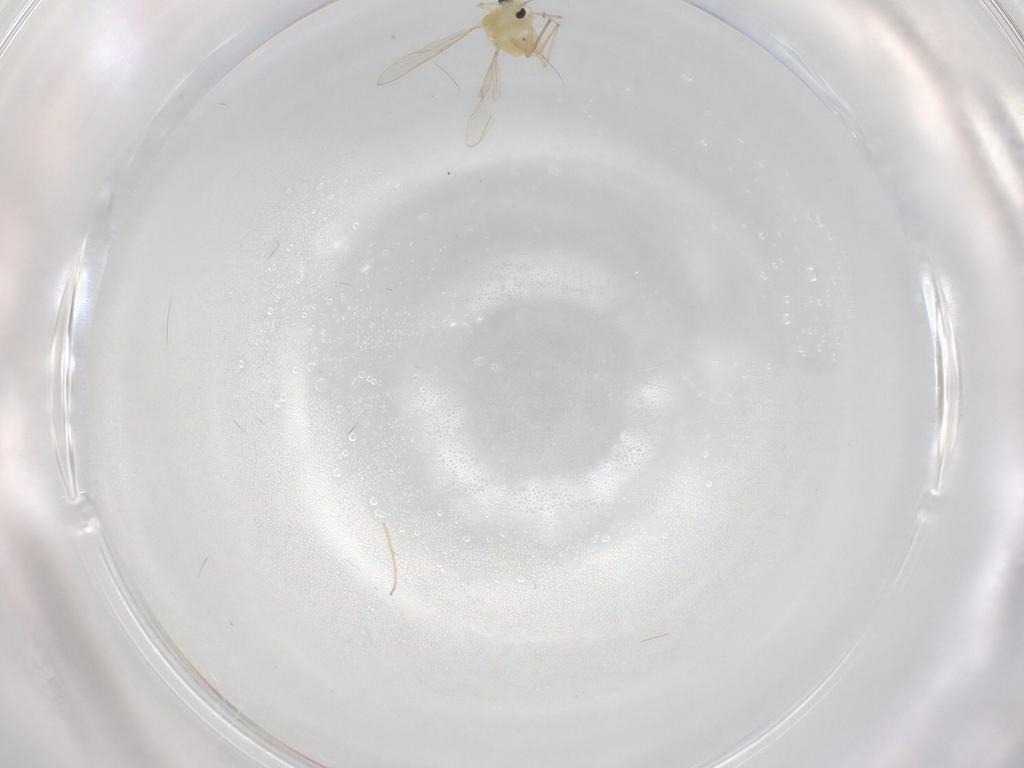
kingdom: Animalia
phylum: Arthropoda
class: Insecta
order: Diptera
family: Chironomidae
